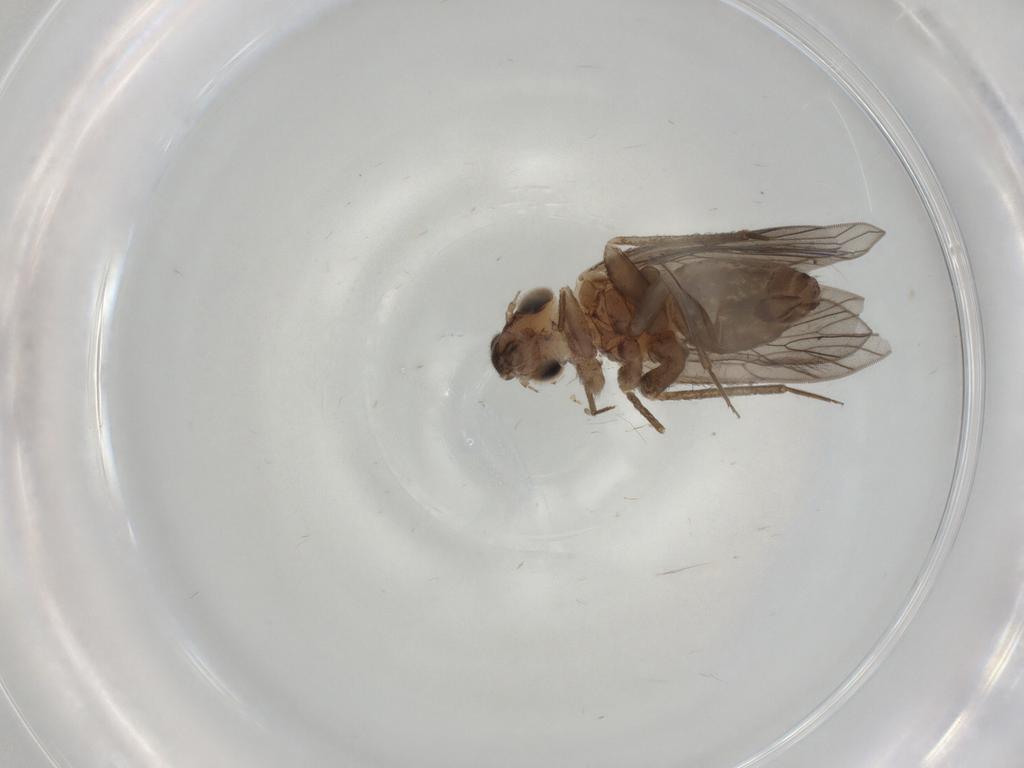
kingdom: Animalia
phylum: Arthropoda
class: Insecta
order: Psocodea
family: Lepidopsocidae
